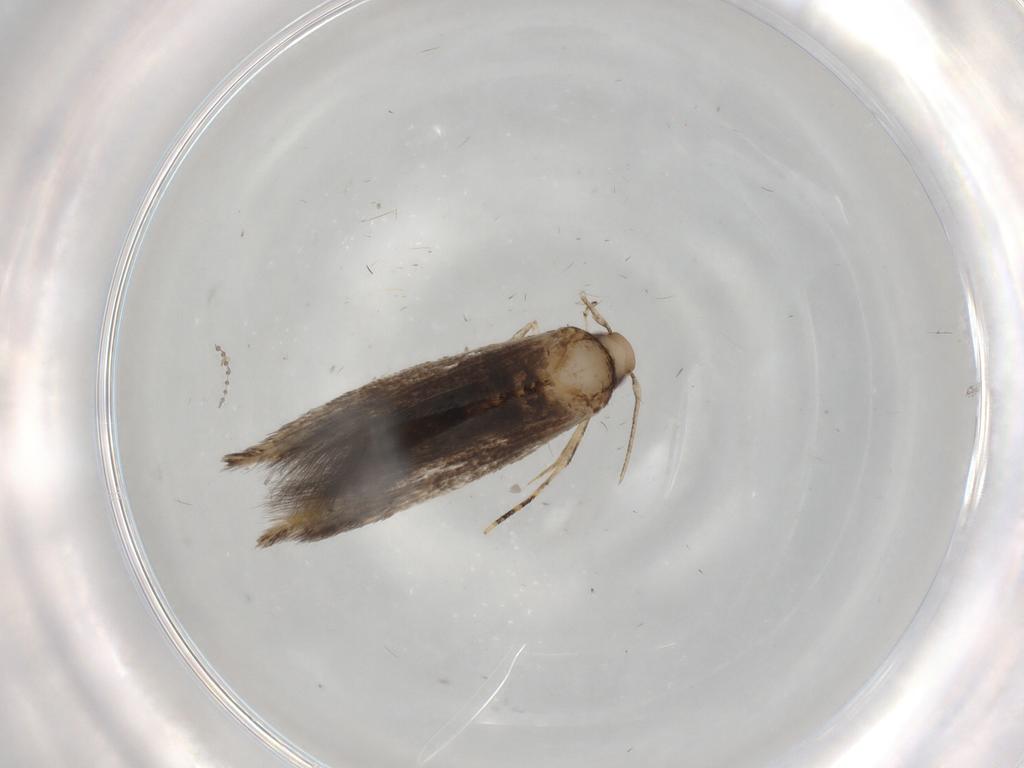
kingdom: Animalia
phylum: Arthropoda
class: Insecta
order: Lepidoptera
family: Cosmopterigidae
